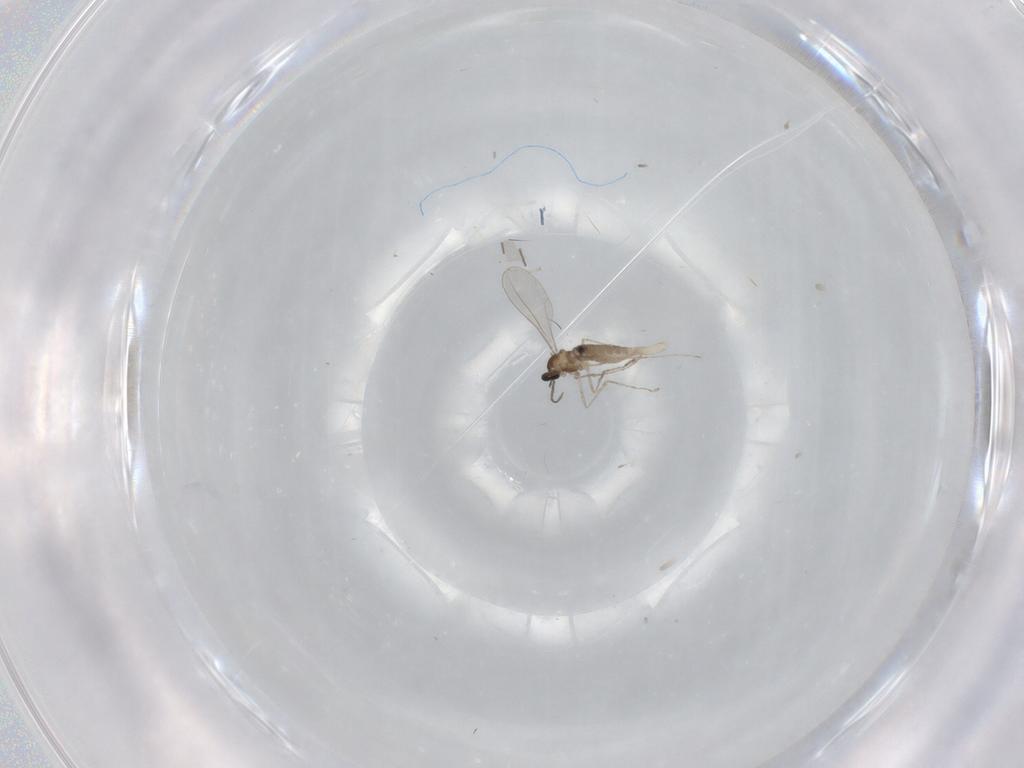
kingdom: Animalia
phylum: Arthropoda
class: Insecta
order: Diptera
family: Cecidomyiidae
